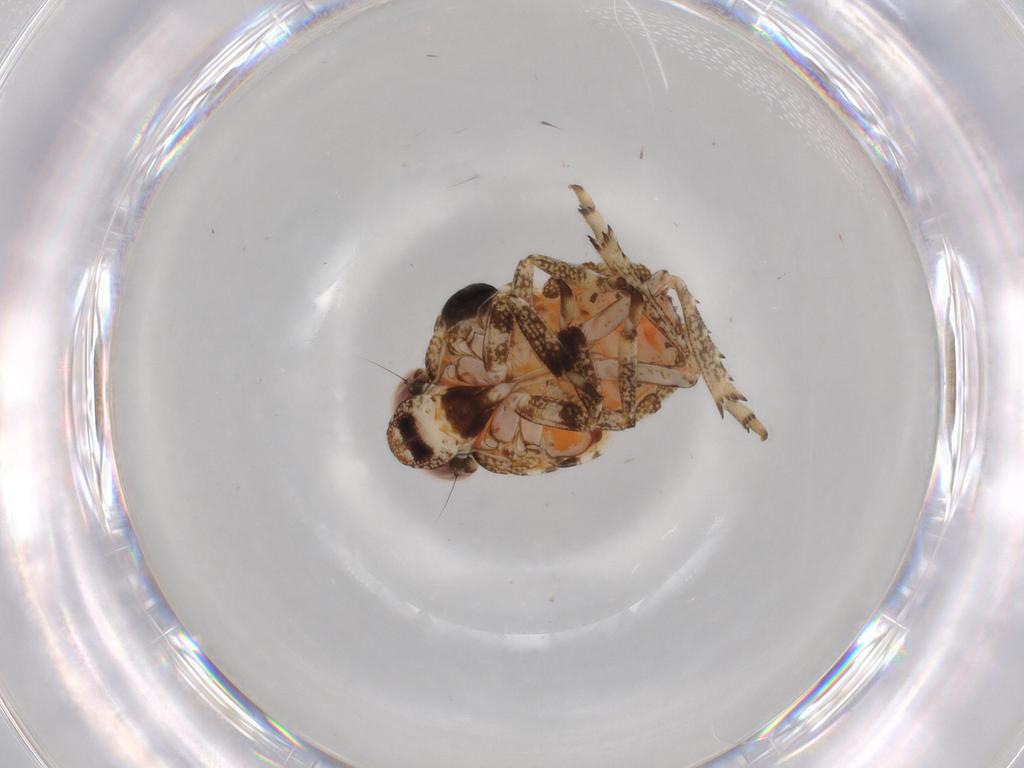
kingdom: Animalia
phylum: Arthropoda
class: Insecta
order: Hemiptera
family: Issidae
